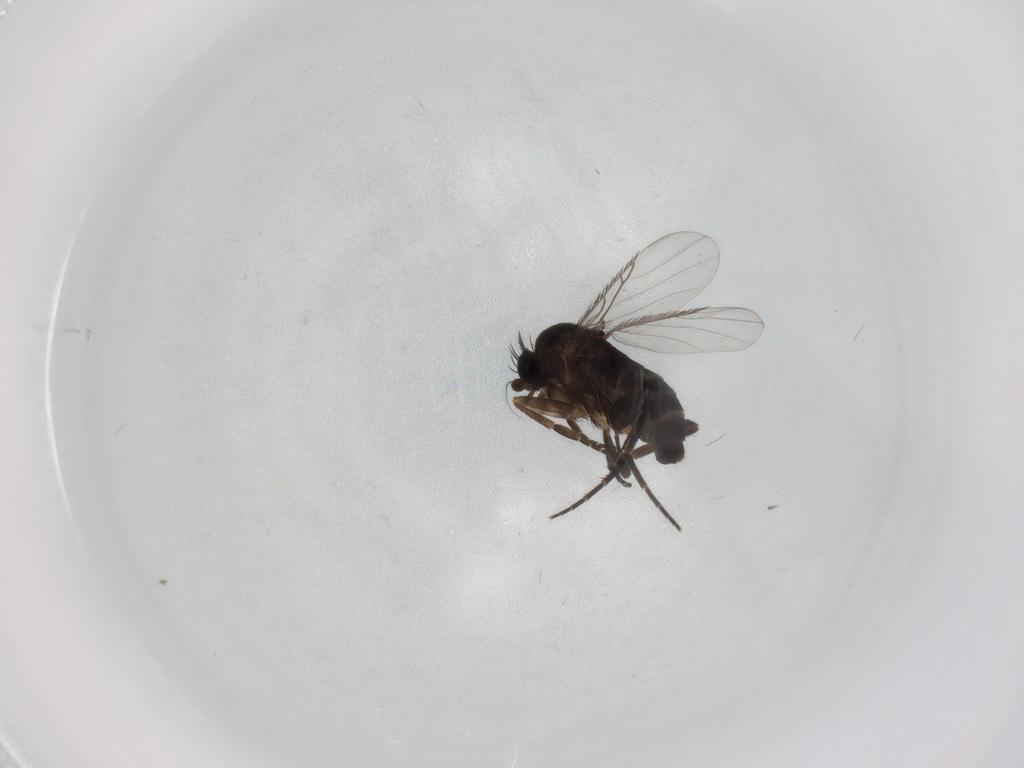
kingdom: Animalia
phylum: Arthropoda
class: Insecta
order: Diptera
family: Phoridae
